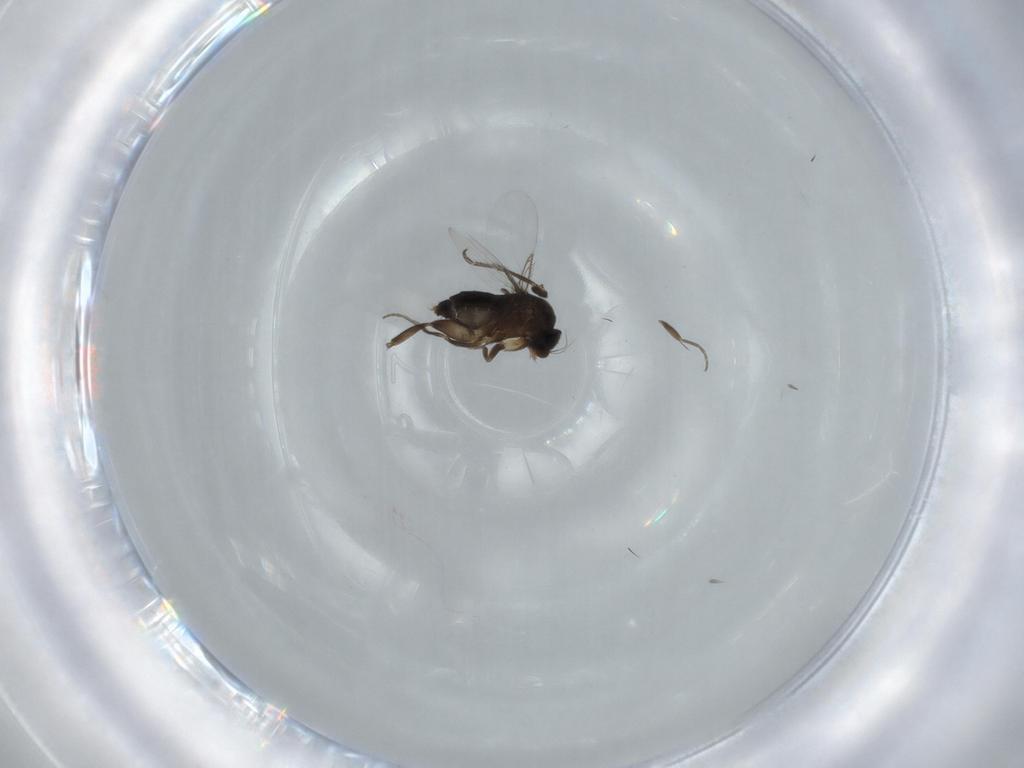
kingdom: Animalia
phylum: Arthropoda
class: Insecta
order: Diptera
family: Phoridae
